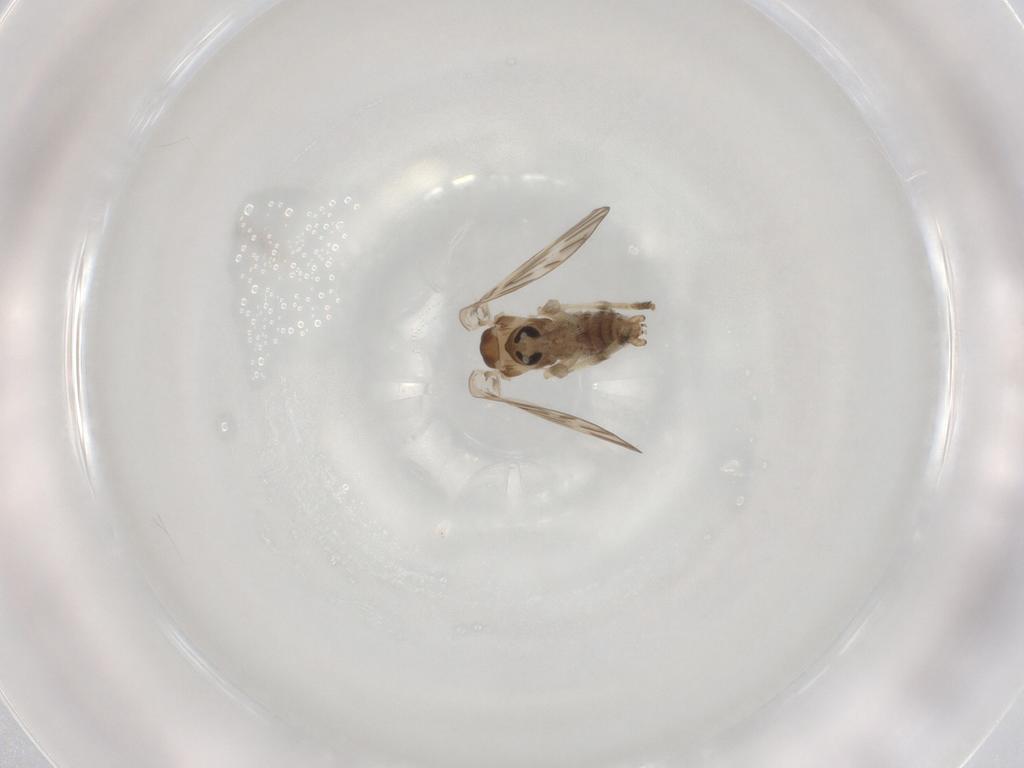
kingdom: Animalia
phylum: Arthropoda
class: Insecta
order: Diptera
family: Psychodidae
